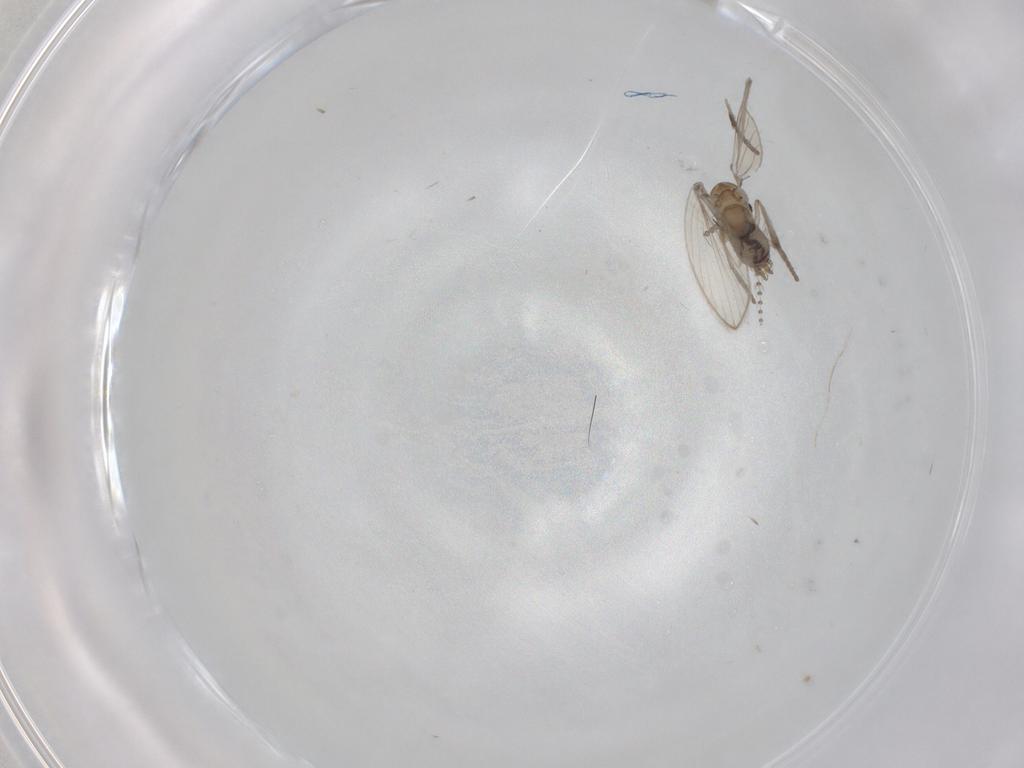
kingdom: Animalia
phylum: Arthropoda
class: Insecta
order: Diptera
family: Psychodidae
